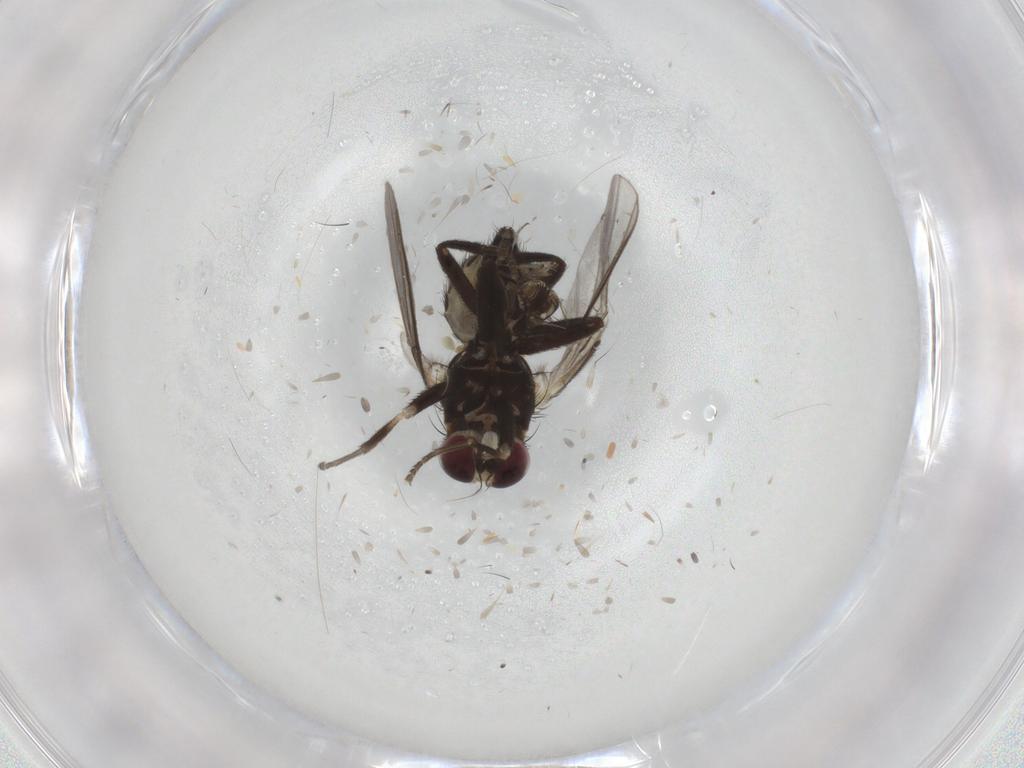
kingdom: Animalia
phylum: Arthropoda
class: Insecta
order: Diptera
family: Agromyzidae
